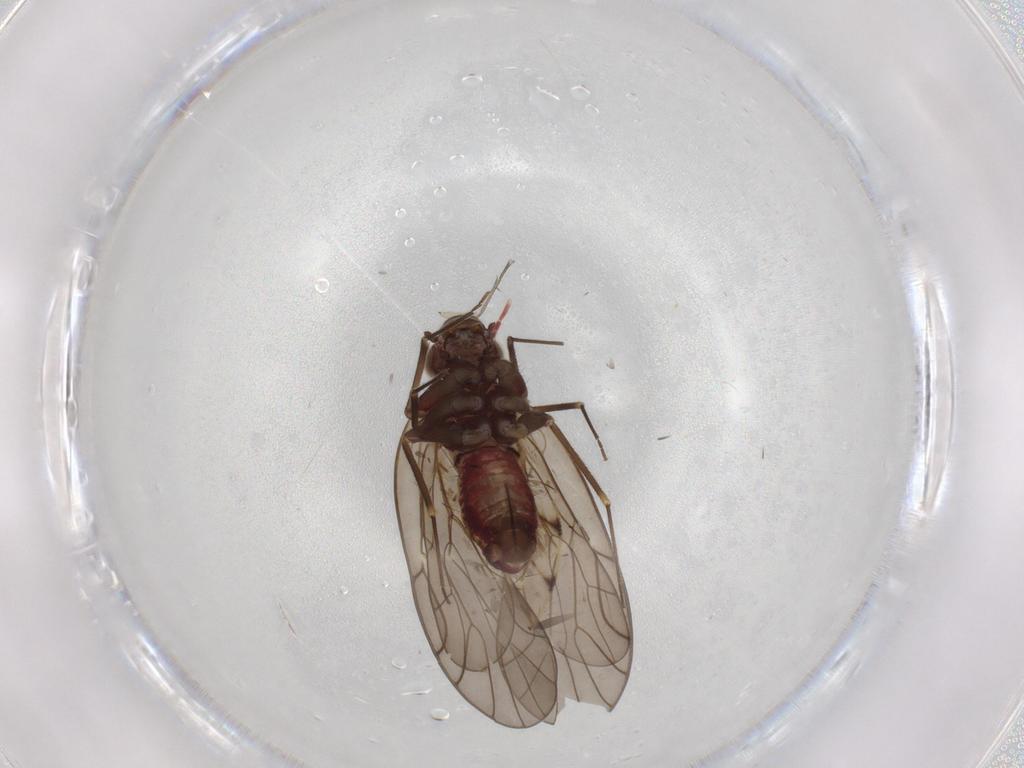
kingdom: Animalia
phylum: Arthropoda
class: Insecta
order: Psocodea
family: Philotarsidae
